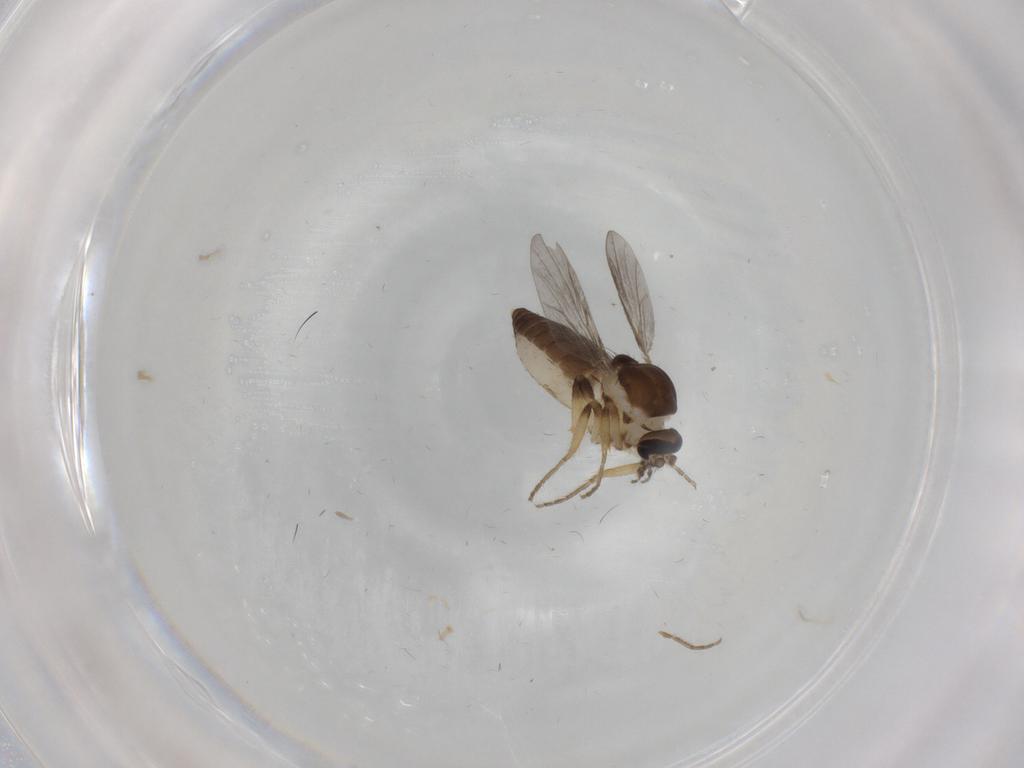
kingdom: Animalia
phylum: Arthropoda
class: Insecta
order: Diptera
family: Ceratopogonidae
